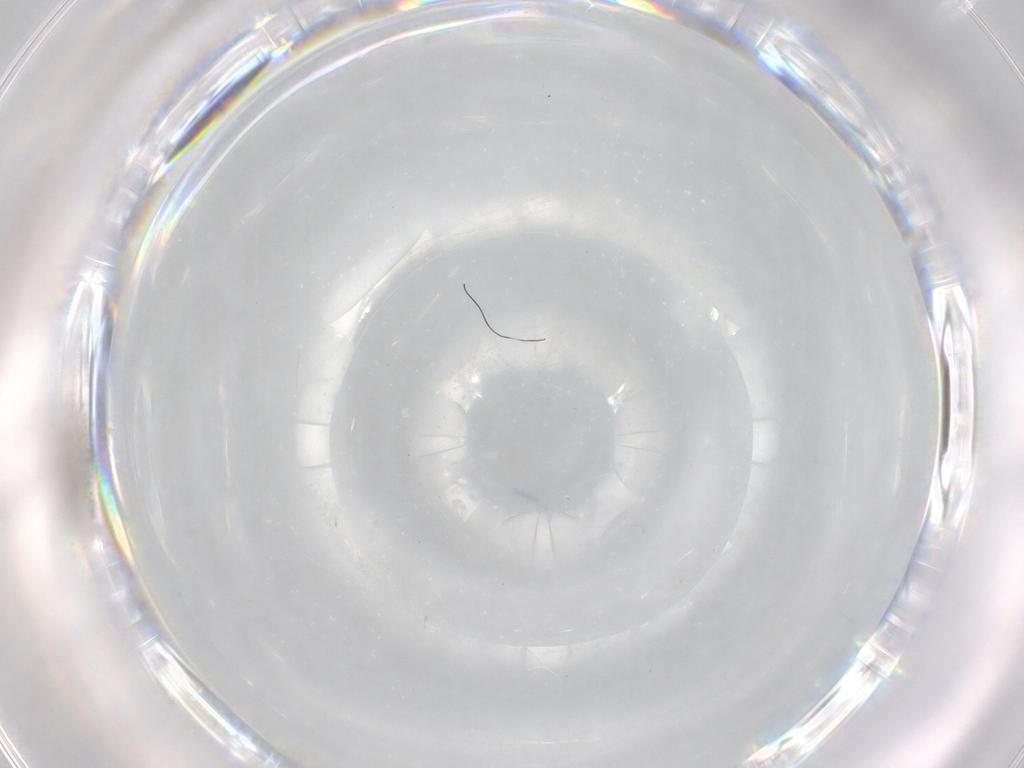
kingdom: Animalia
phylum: Arthropoda
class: Insecta
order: Diptera
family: Cecidomyiidae
